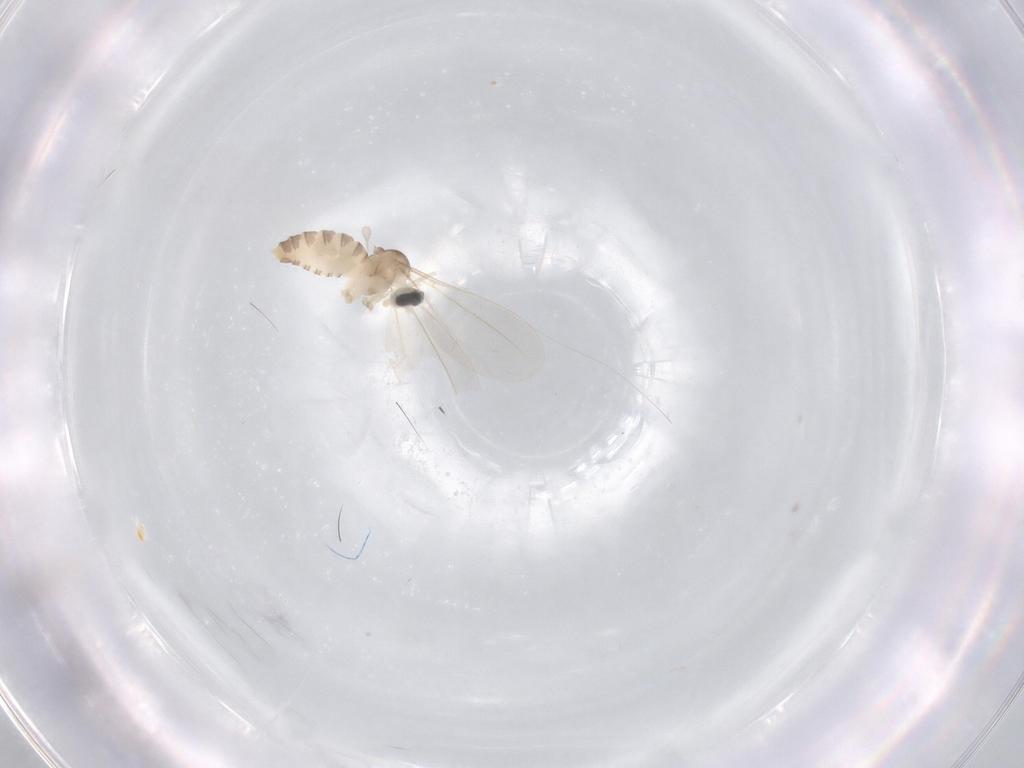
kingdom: Animalia
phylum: Arthropoda
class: Insecta
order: Diptera
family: Cecidomyiidae
